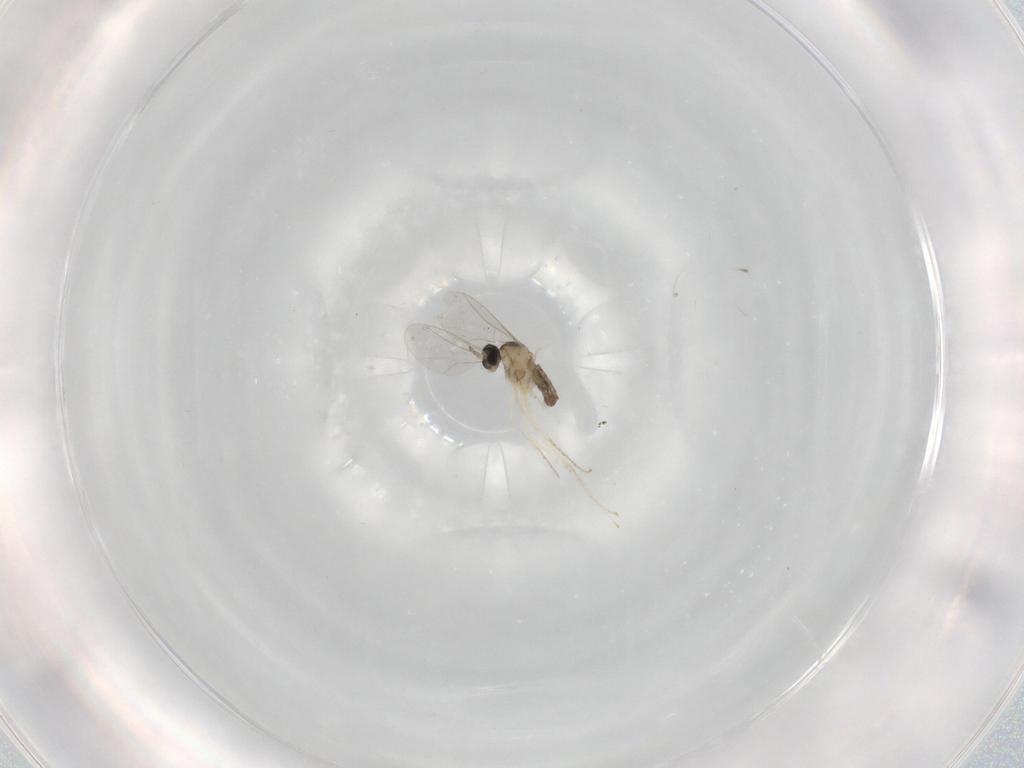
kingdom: Animalia
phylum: Arthropoda
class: Insecta
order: Diptera
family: Cecidomyiidae
